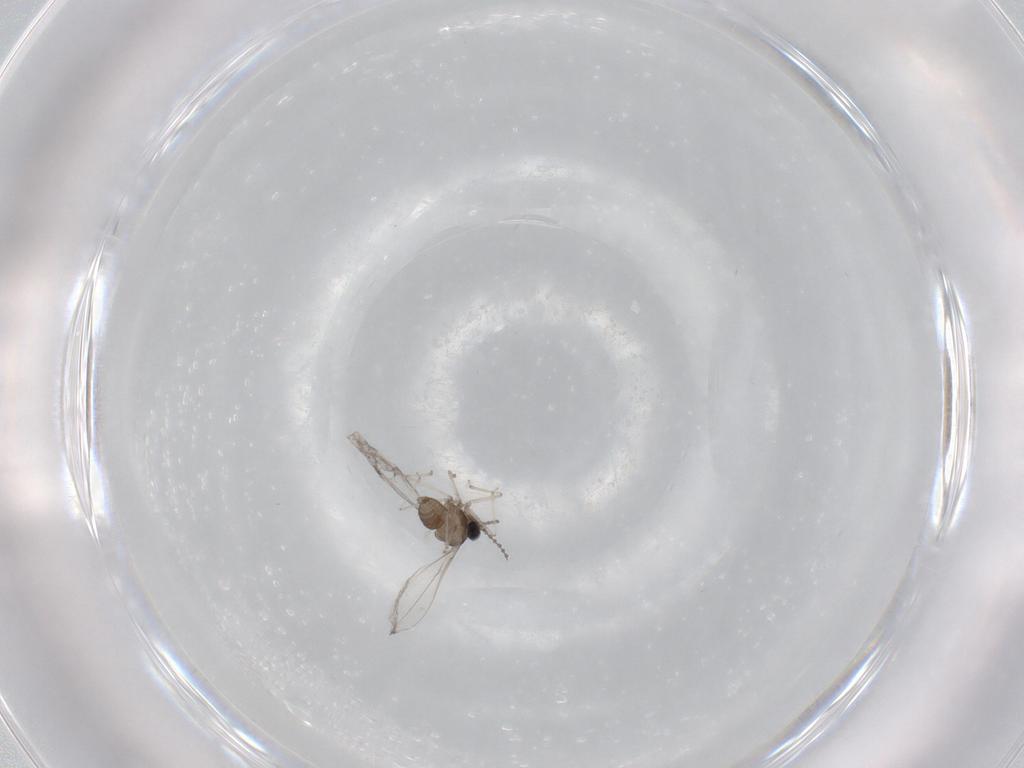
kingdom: Animalia
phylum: Arthropoda
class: Insecta
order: Diptera
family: Cecidomyiidae
